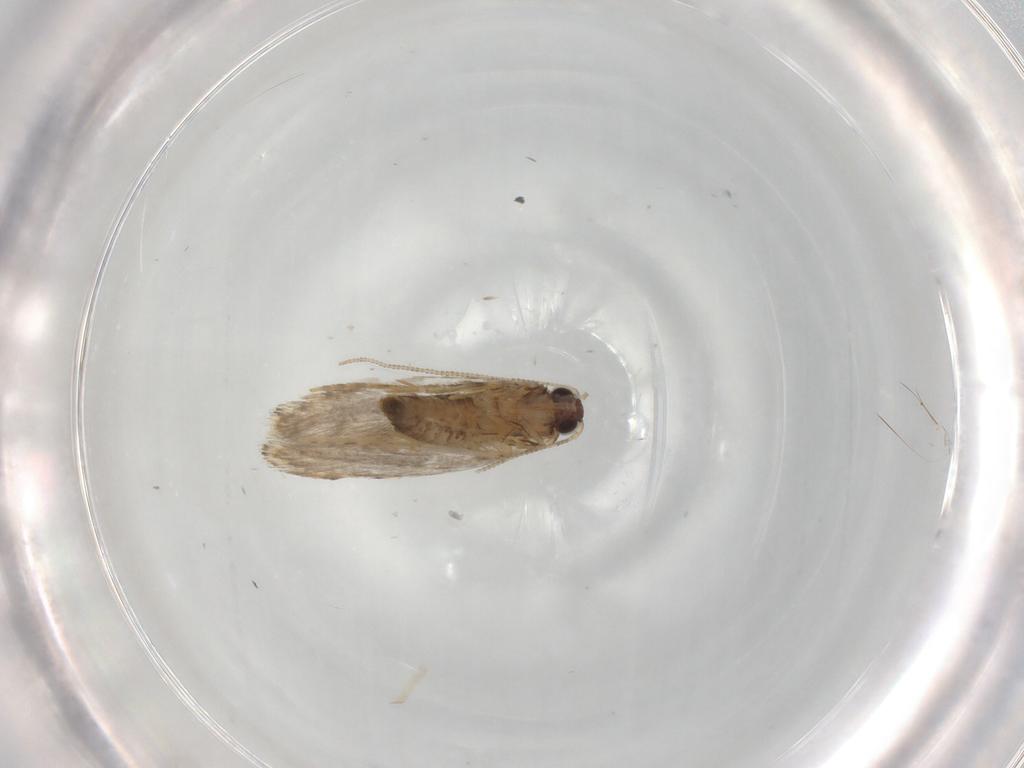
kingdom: Animalia
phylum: Arthropoda
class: Insecta
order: Lepidoptera
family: Tineidae
